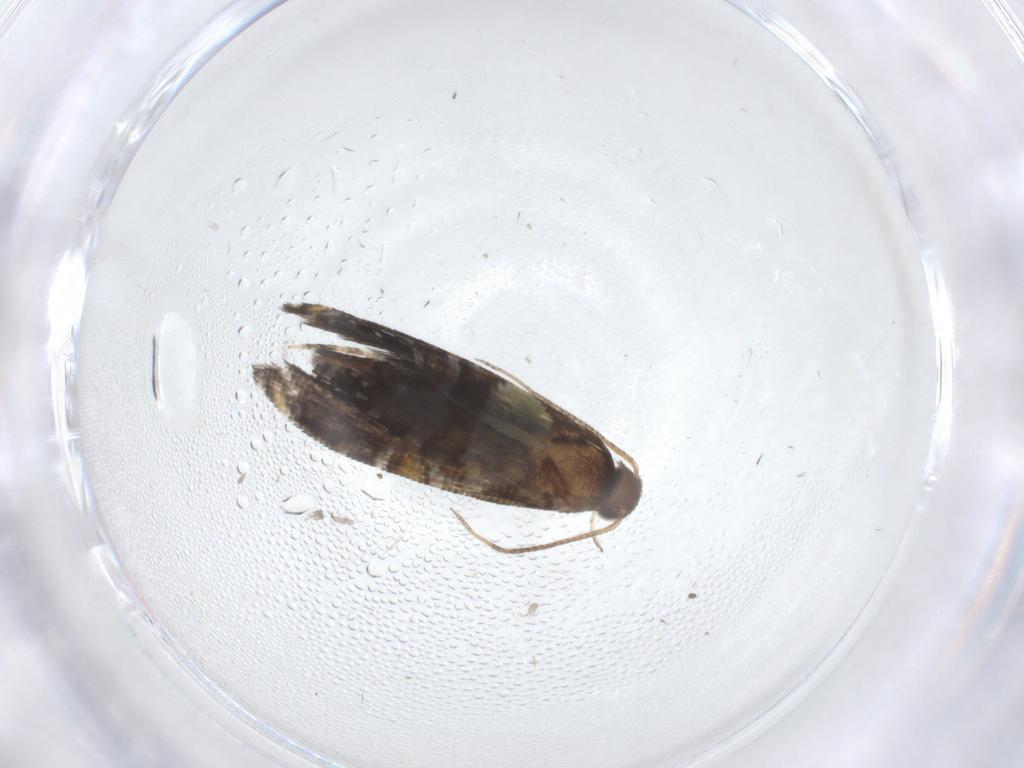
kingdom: Animalia
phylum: Arthropoda
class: Insecta
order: Lepidoptera
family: Glyphipterigidae
